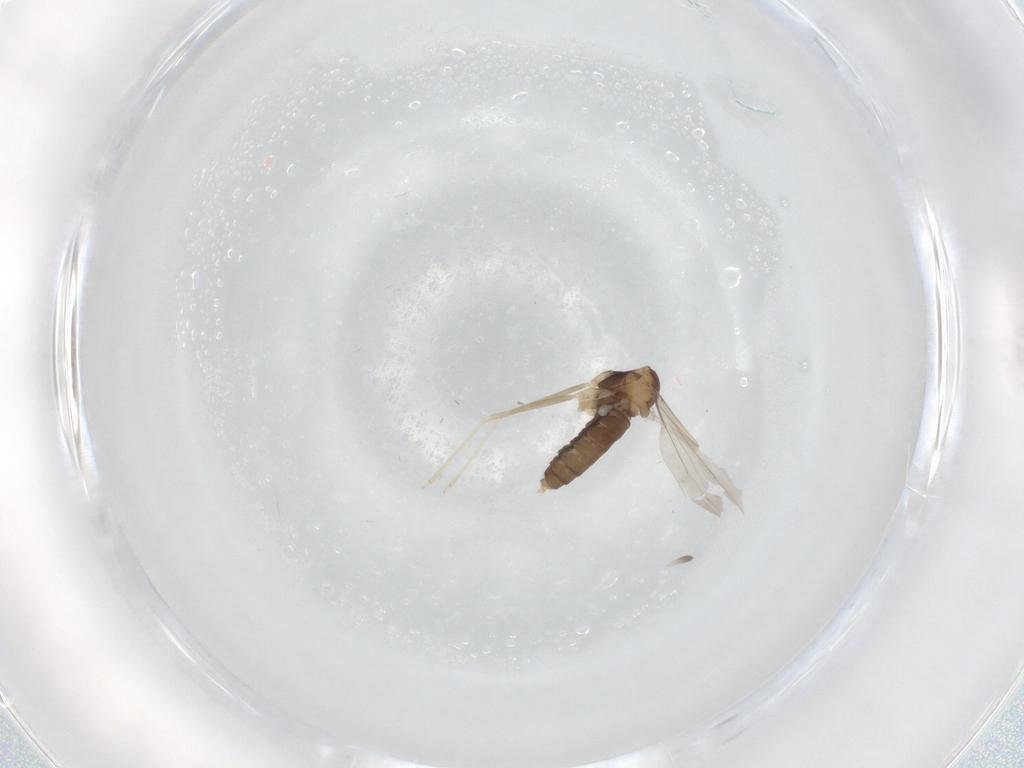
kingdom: Animalia
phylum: Arthropoda
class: Insecta
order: Diptera
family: Cecidomyiidae
